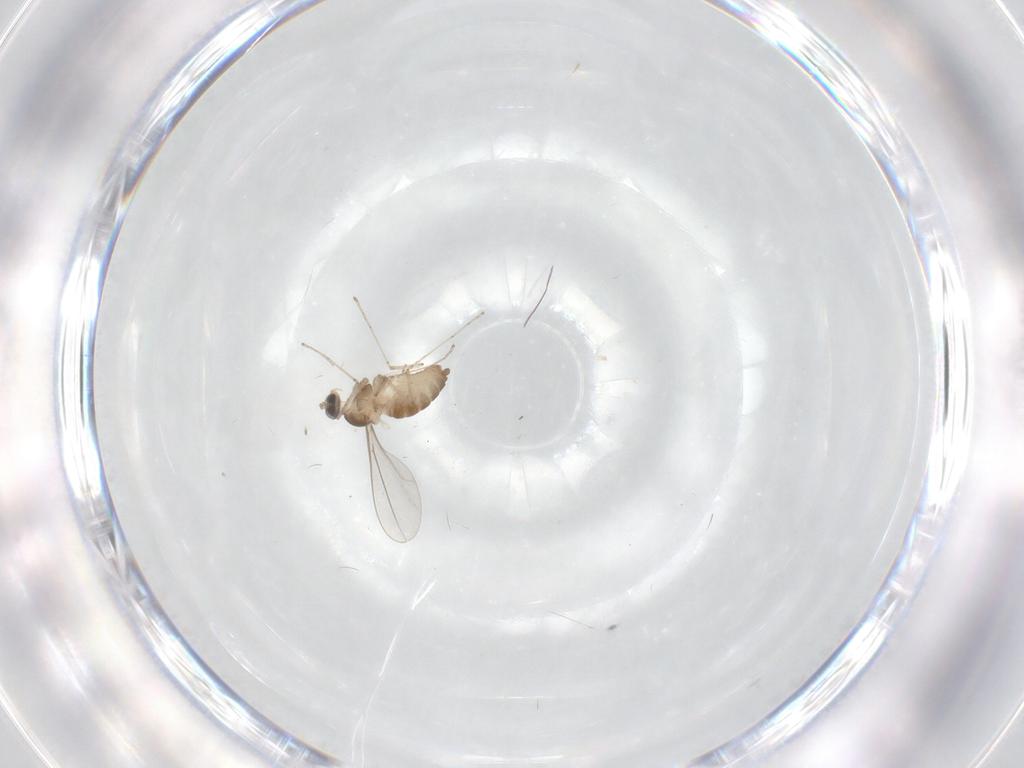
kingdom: Animalia
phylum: Arthropoda
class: Insecta
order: Diptera
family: Cecidomyiidae
